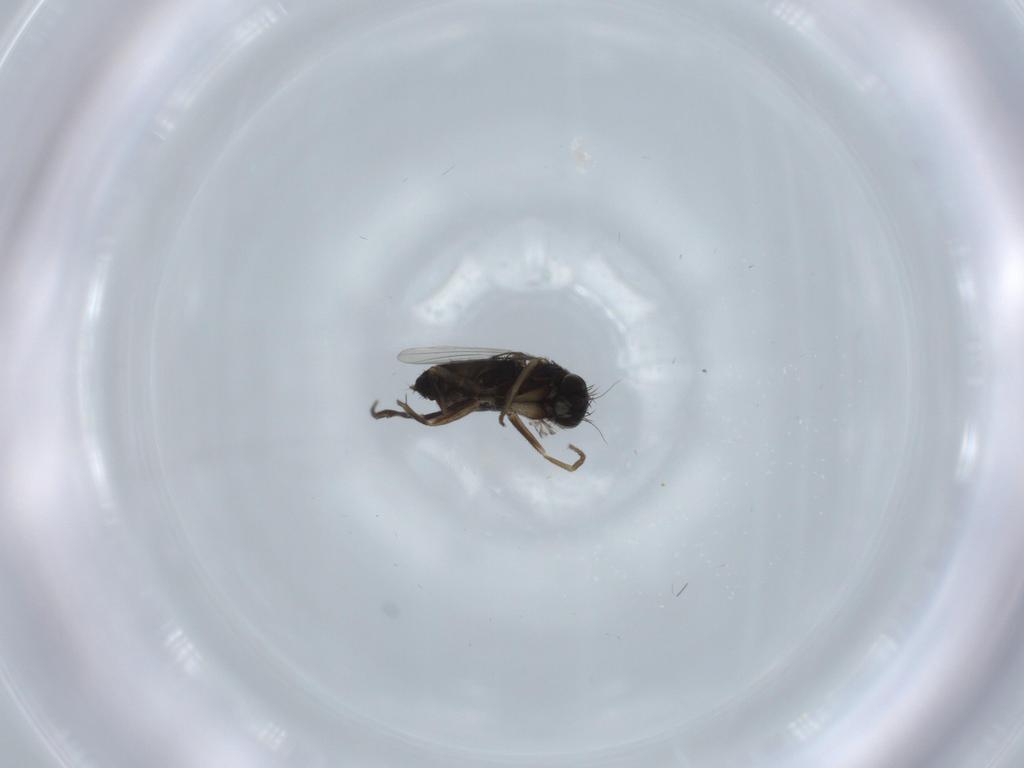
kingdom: Animalia
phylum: Arthropoda
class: Insecta
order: Diptera
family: Phoridae
